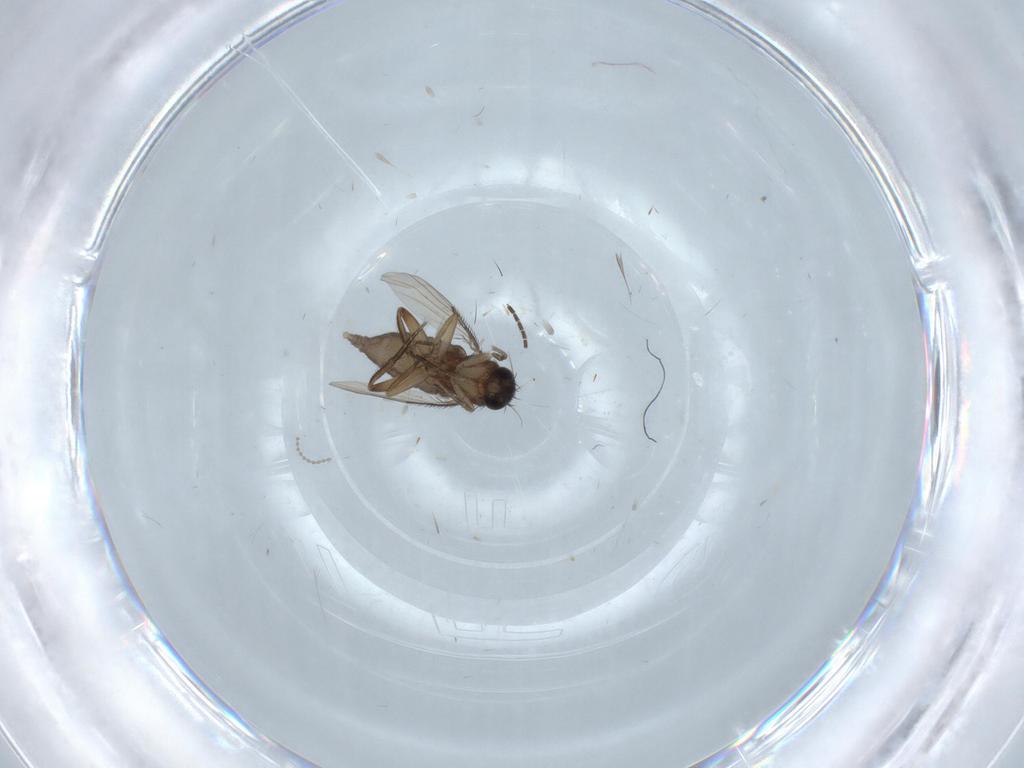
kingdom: Animalia
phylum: Arthropoda
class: Insecta
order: Diptera
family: Phoridae
